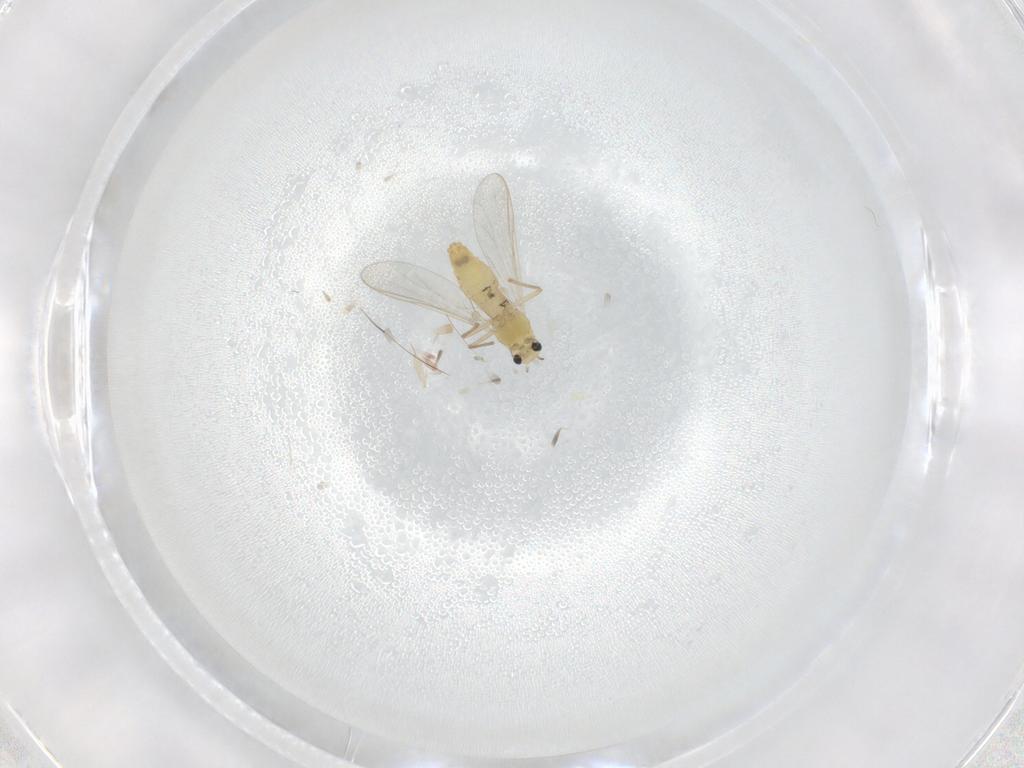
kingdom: Animalia
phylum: Arthropoda
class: Insecta
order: Diptera
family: Chironomidae
